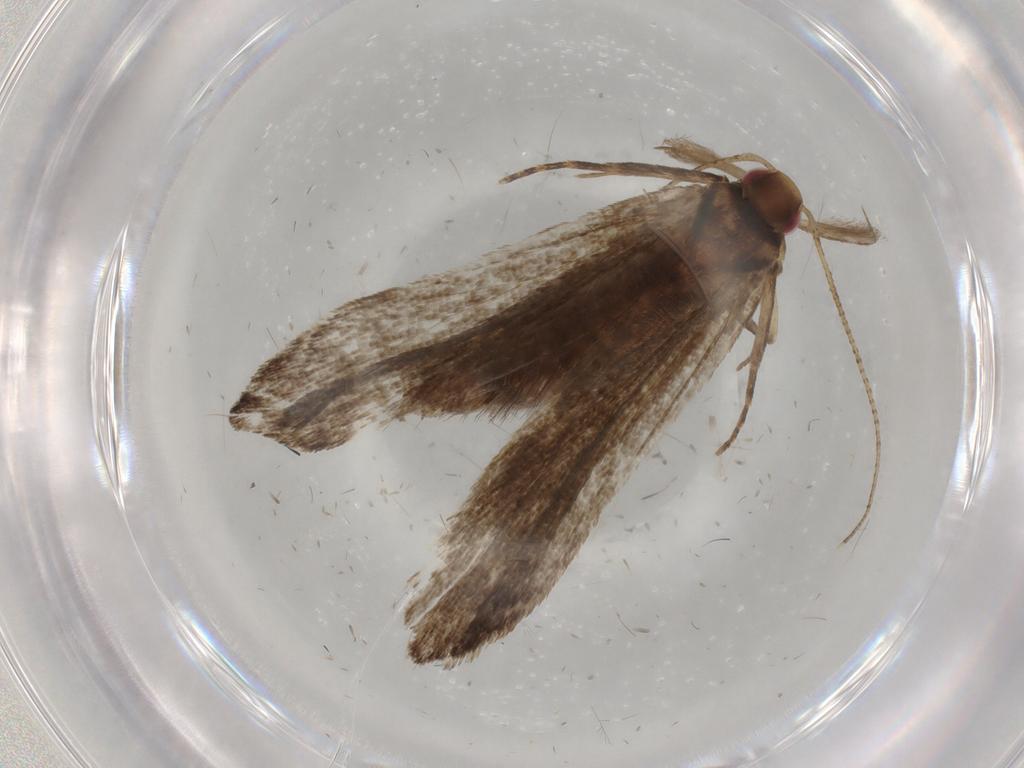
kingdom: Animalia
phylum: Arthropoda
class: Insecta
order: Lepidoptera
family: Gelechiidae
